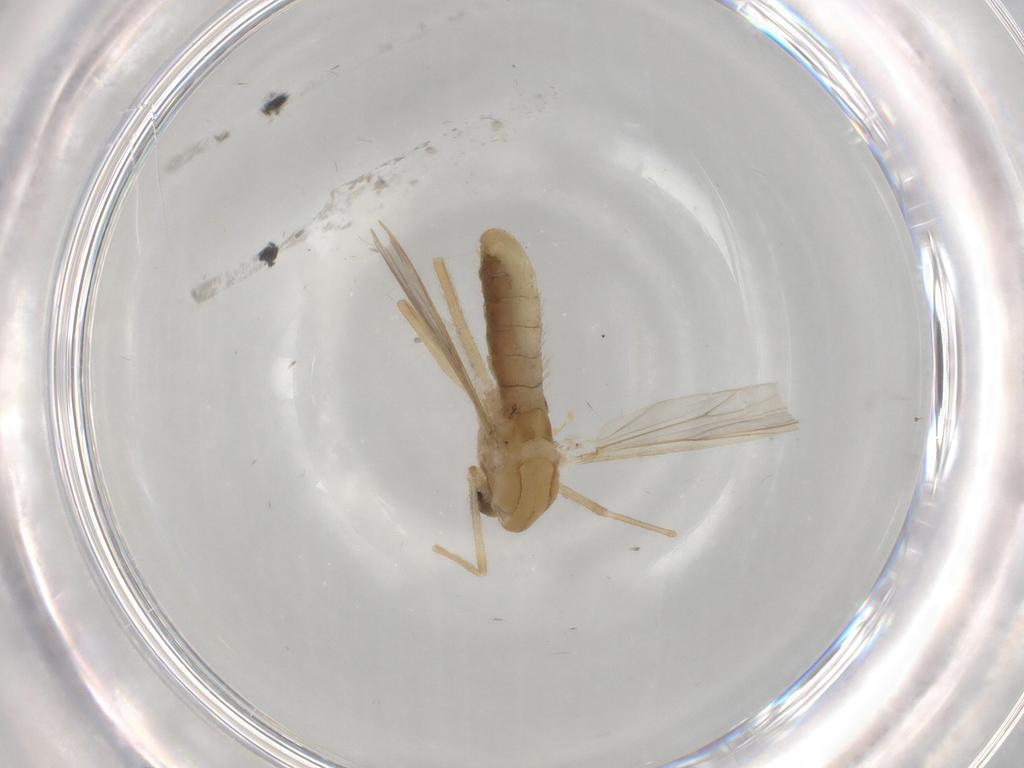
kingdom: Animalia
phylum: Arthropoda
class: Insecta
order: Diptera
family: Chironomidae
